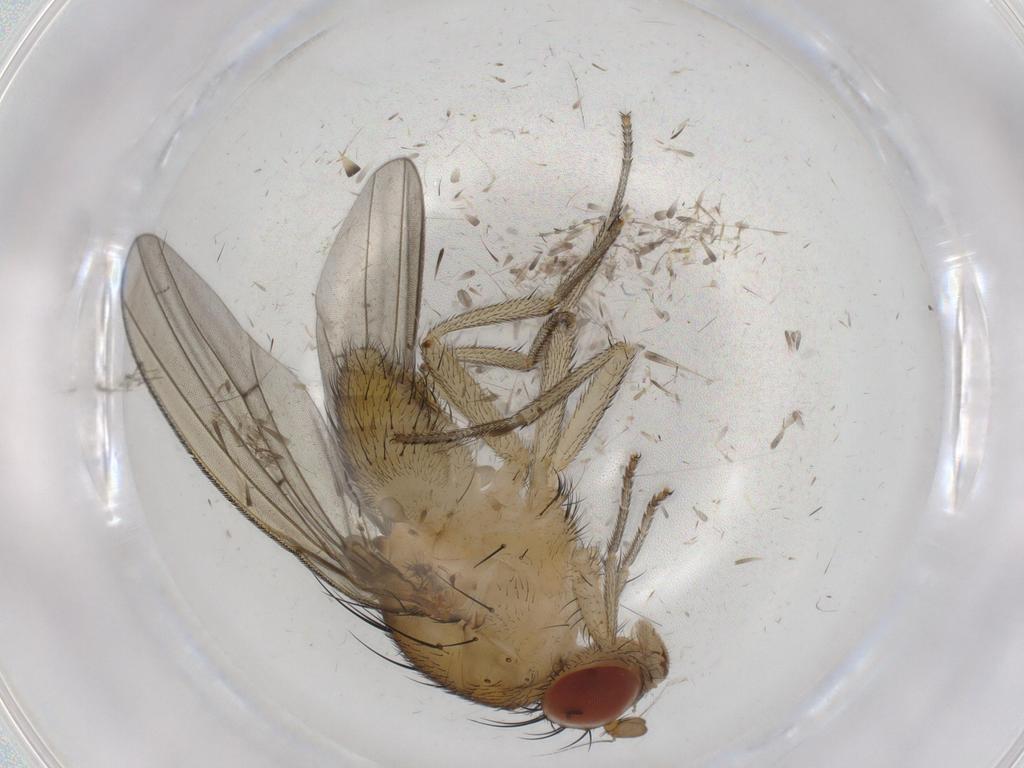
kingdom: Animalia
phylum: Arthropoda
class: Insecta
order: Diptera
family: Cecidomyiidae
